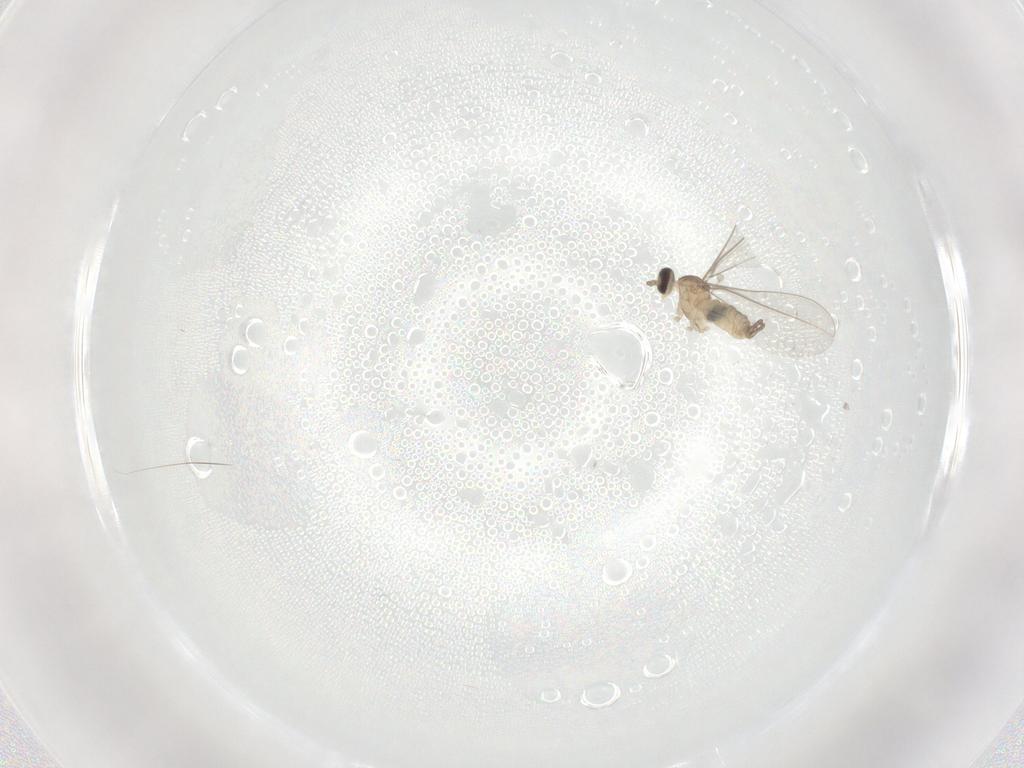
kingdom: Animalia
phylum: Arthropoda
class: Insecta
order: Diptera
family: Cecidomyiidae
